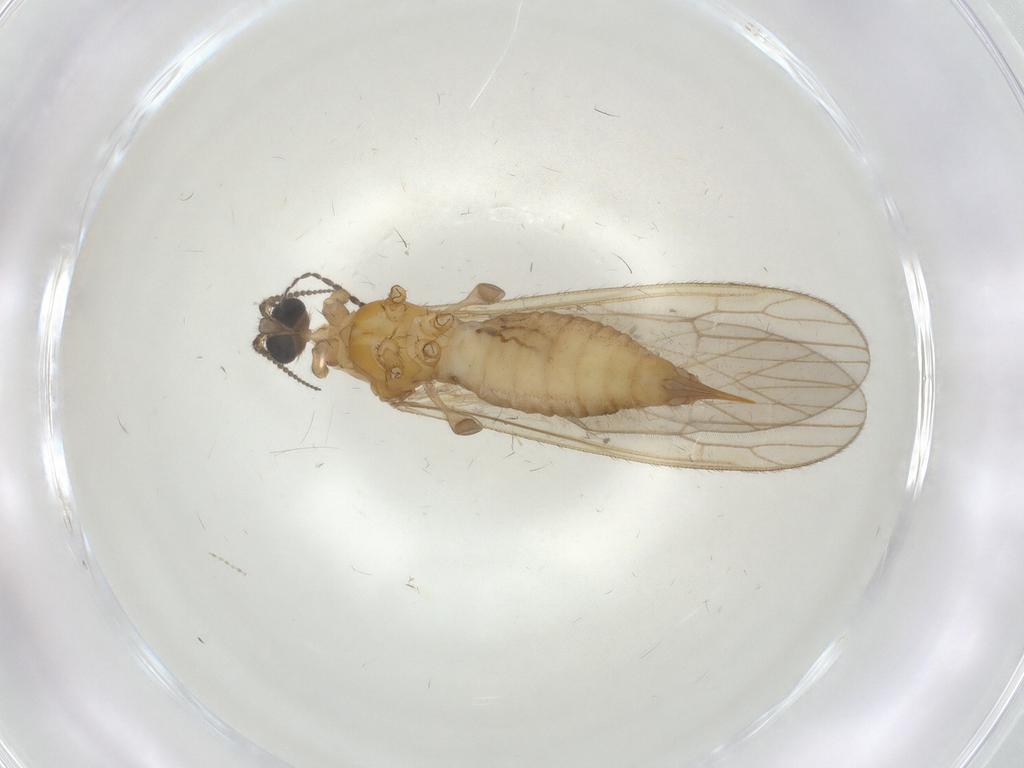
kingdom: Animalia
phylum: Arthropoda
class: Insecta
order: Diptera
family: Limoniidae
